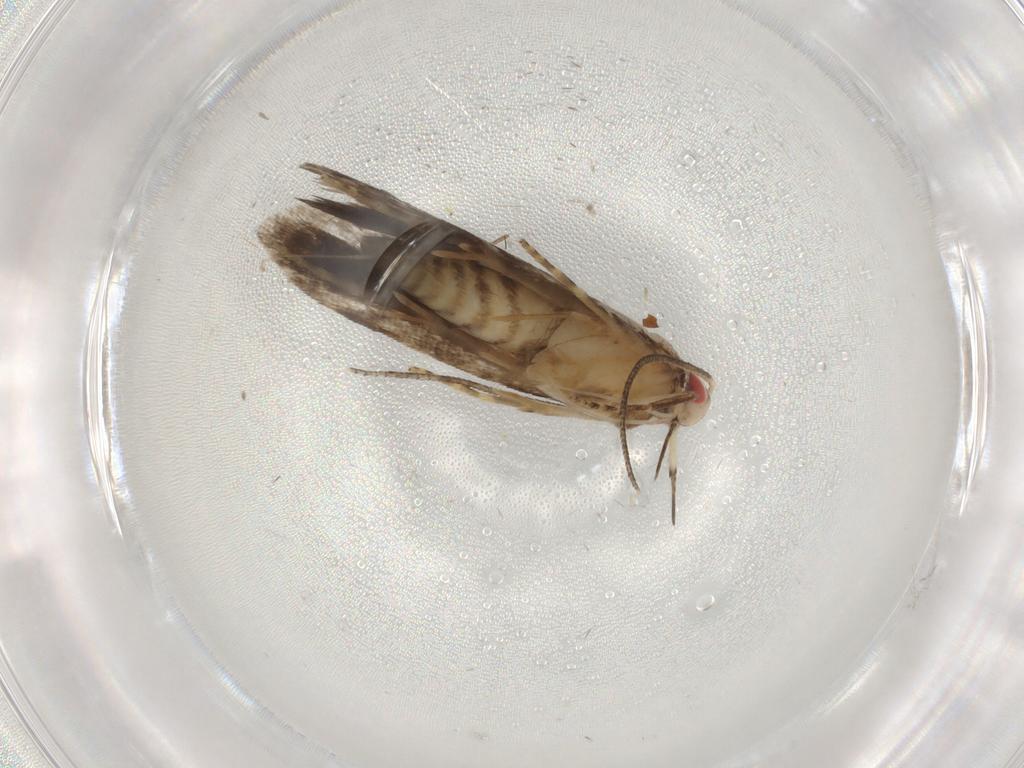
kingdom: Animalia
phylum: Arthropoda
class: Insecta
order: Lepidoptera
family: Gelechiidae
